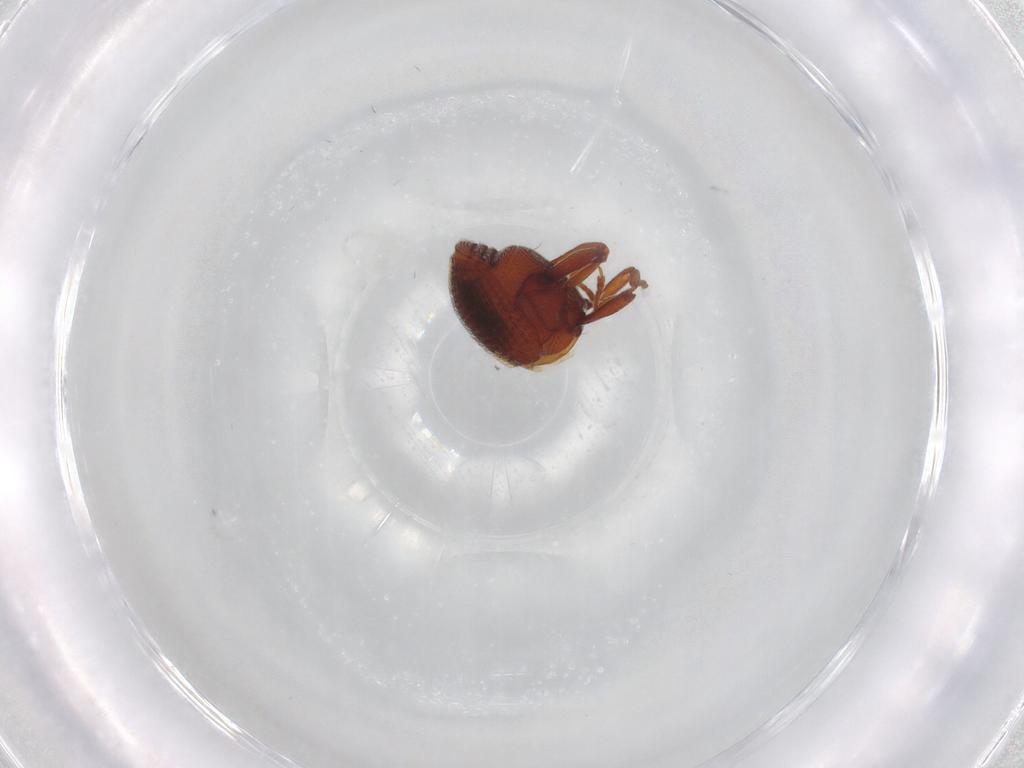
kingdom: Animalia
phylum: Arthropoda
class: Insecta
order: Coleoptera
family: Curculionidae
